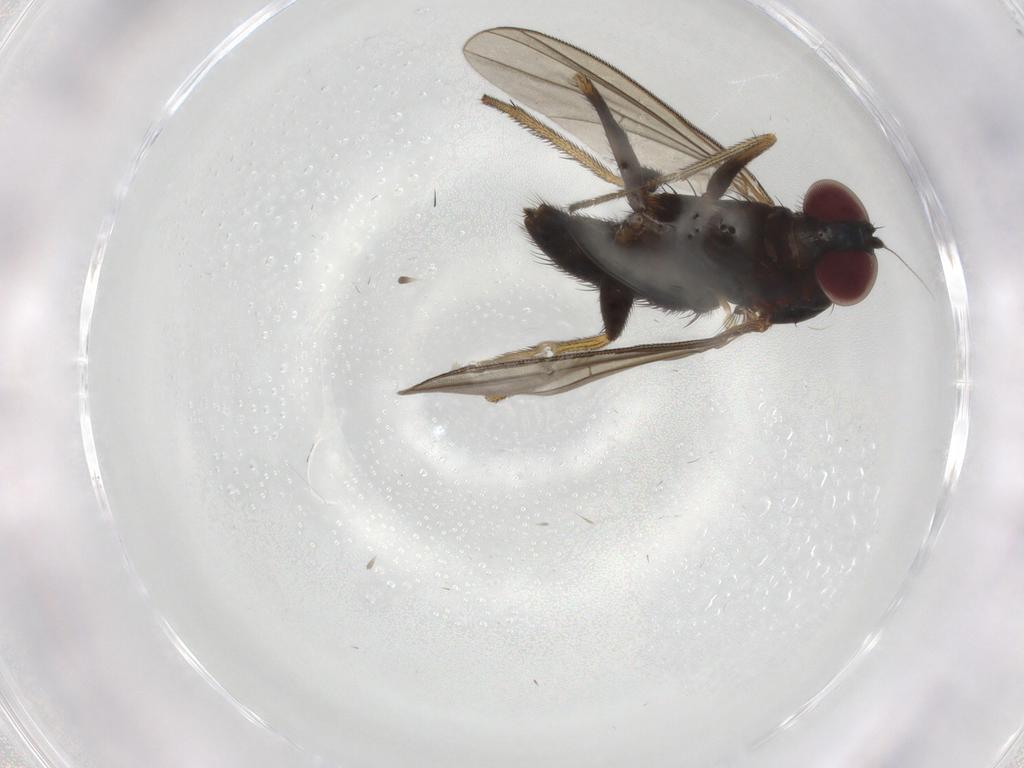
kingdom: Animalia
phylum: Arthropoda
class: Insecta
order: Diptera
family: Dolichopodidae
